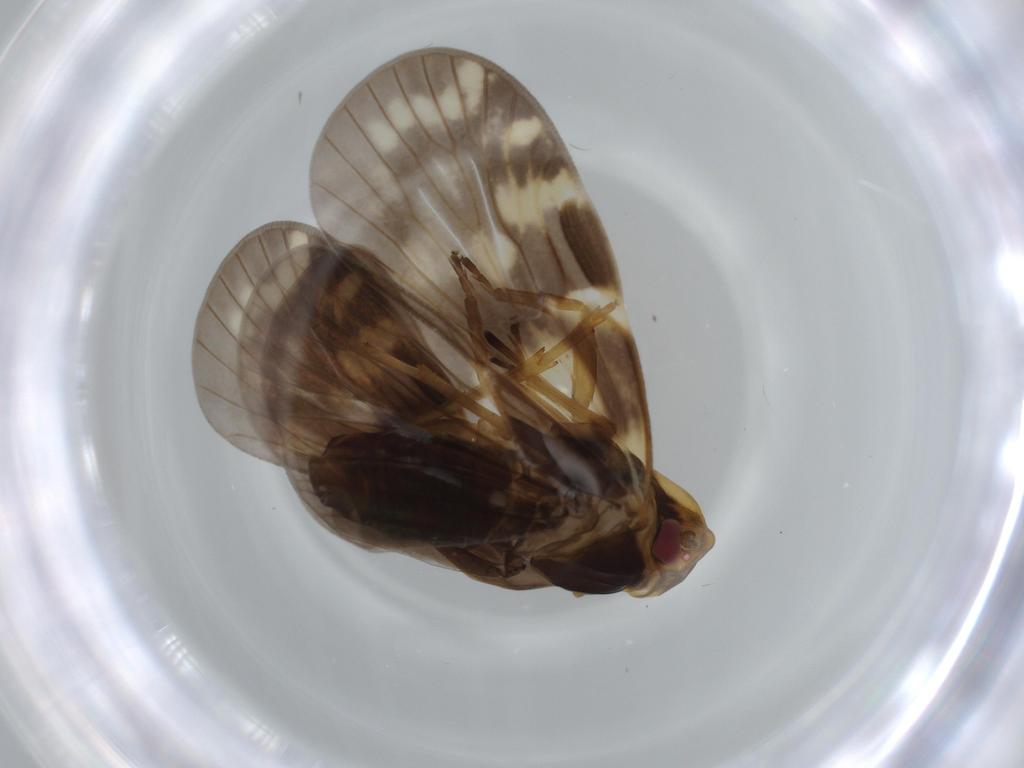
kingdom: Animalia
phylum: Arthropoda
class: Insecta
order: Hemiptera
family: Cixiidae
